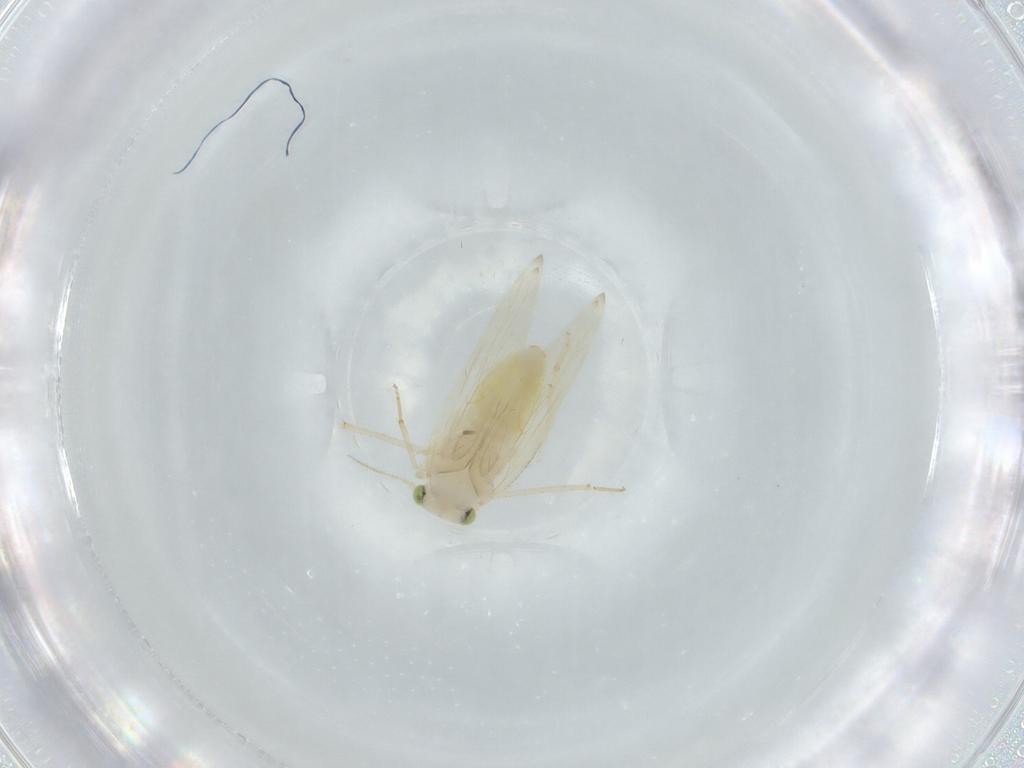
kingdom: Animalia
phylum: Arthropoda
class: Insecta
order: Psocodea
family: Lepidopsocidae
